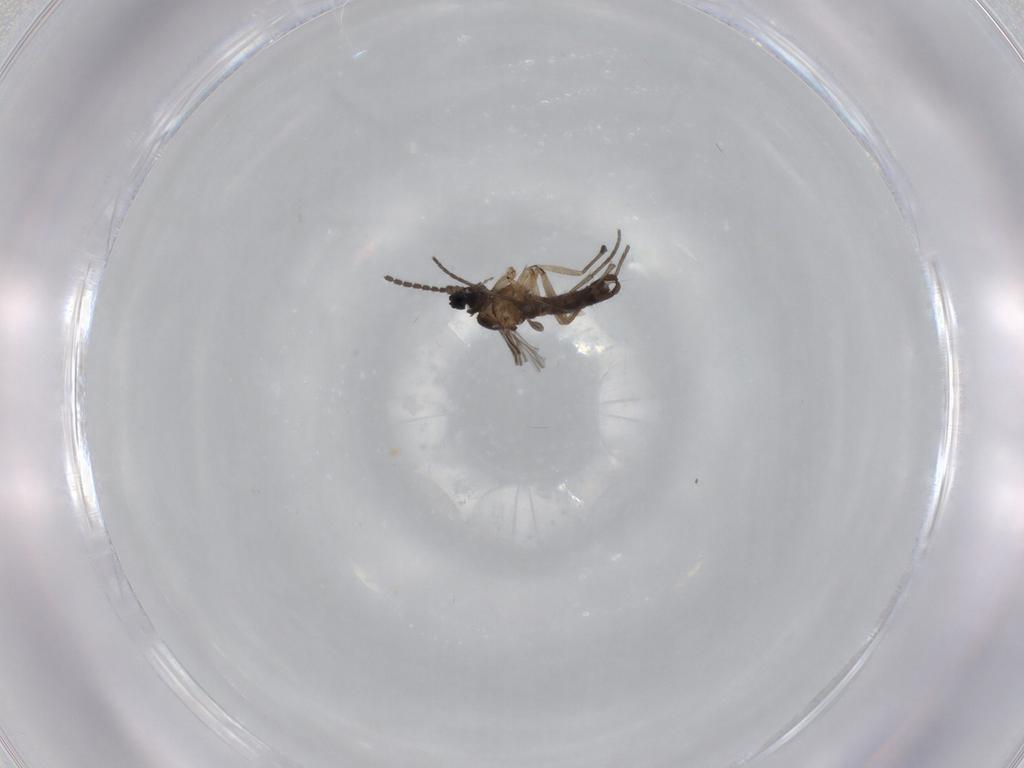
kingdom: Animalia
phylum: Arthropoda
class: Insecta
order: Diptera
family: Ceratopogonidae
